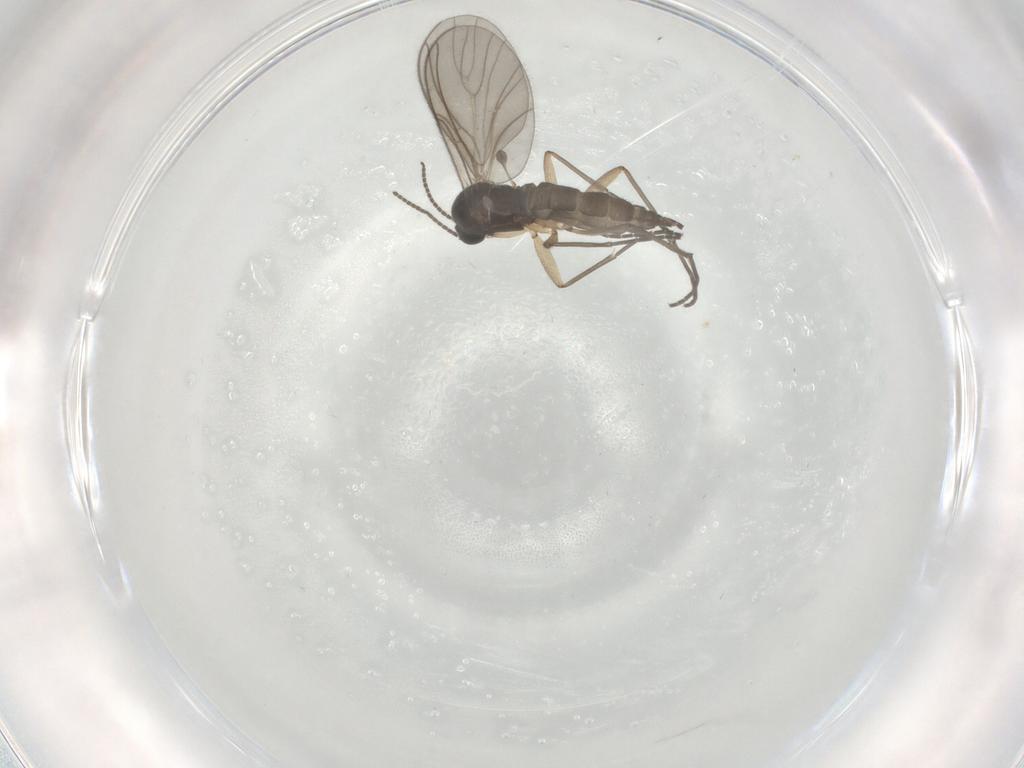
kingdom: Animalia
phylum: Arthropoda
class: Insecta
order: Diptera
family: Sciaridae
